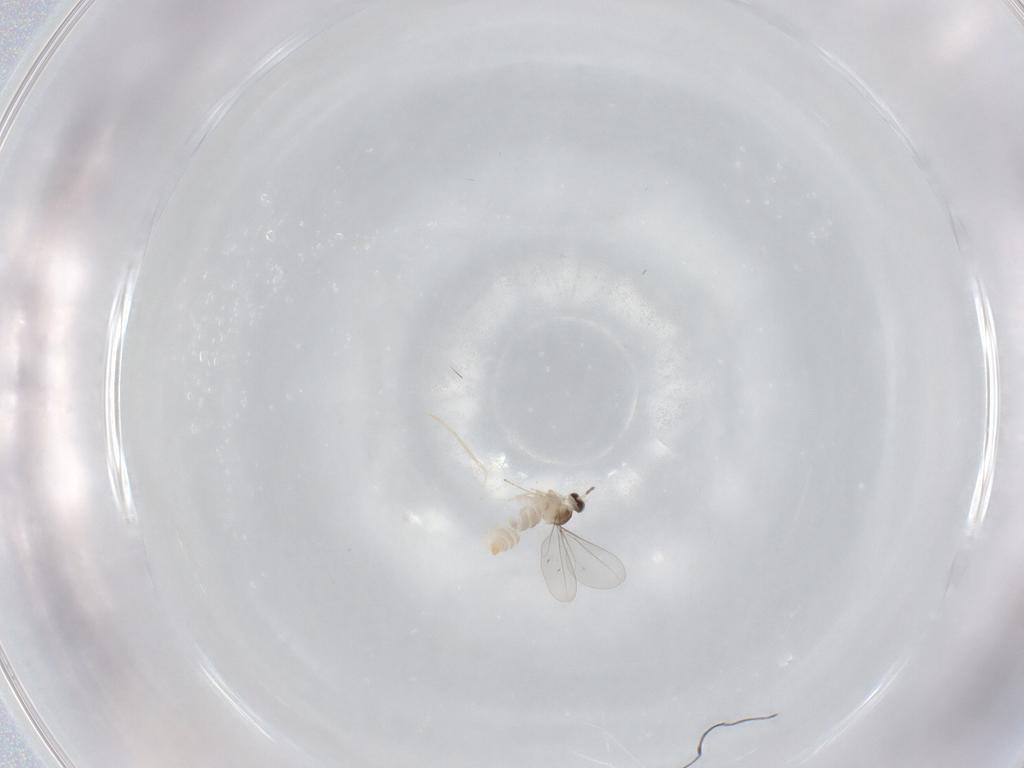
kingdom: Animalia
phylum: Arthropoda
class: Insecta
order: Diptera
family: Cecidomyiidae
